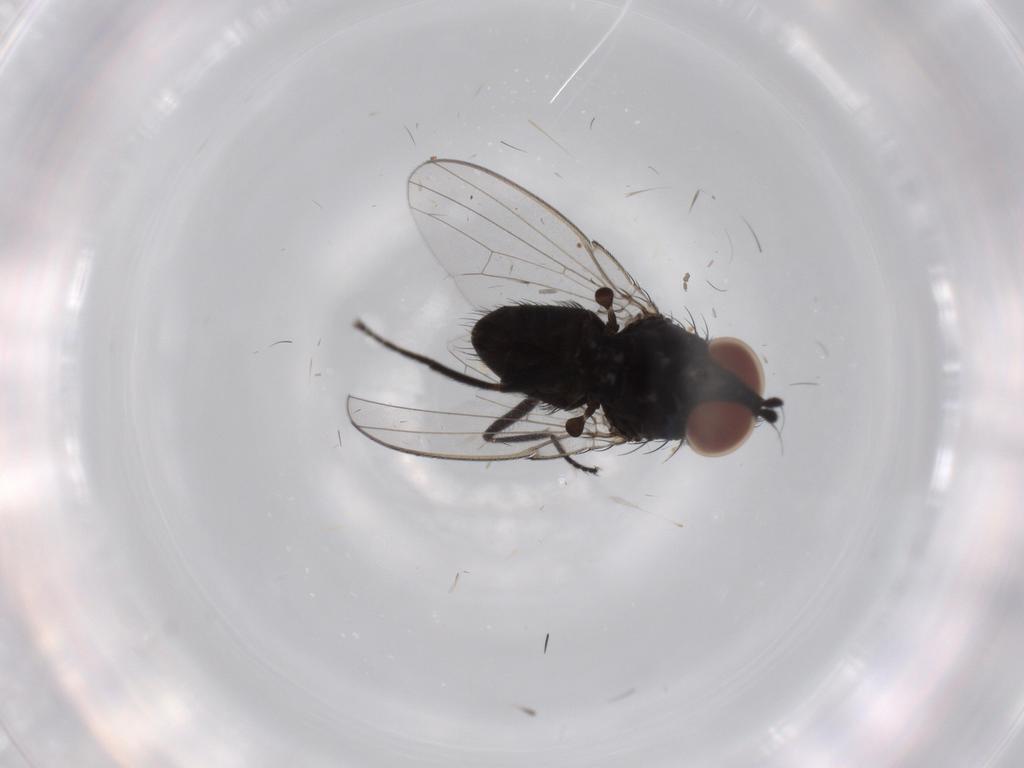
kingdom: Animalia
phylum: Arthropoda
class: Insecta
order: Diptera
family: Milichiidae
